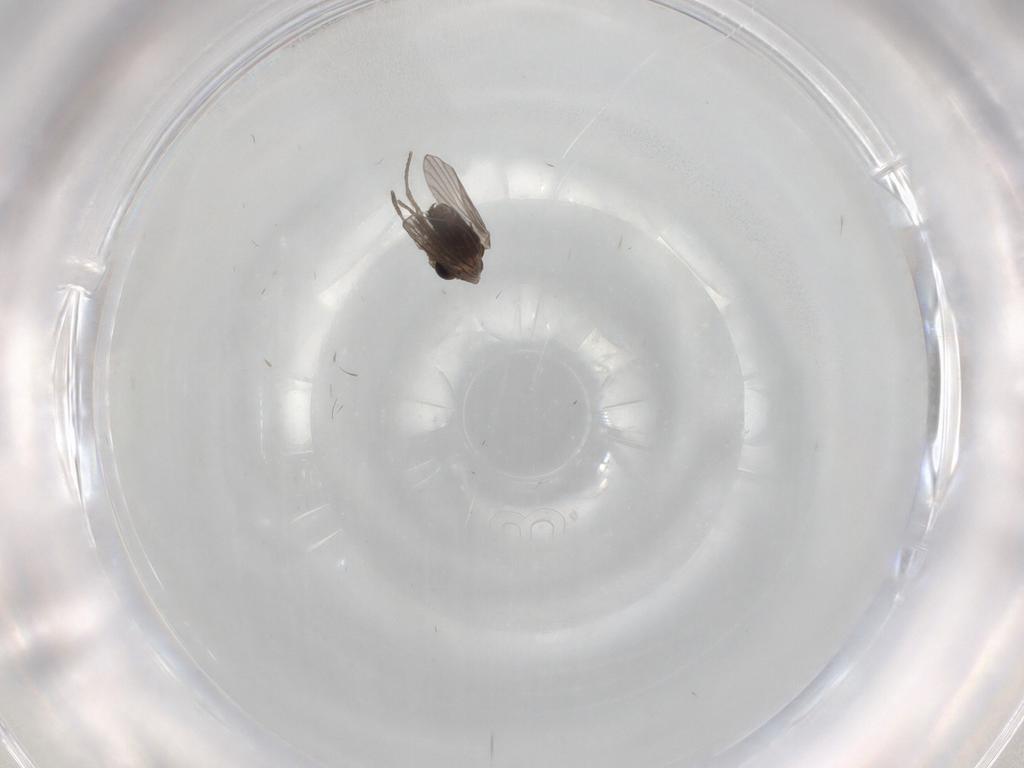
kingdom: Animalia
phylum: Arthropoda
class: Insecta
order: Diptera
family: Cecidomyiidae
